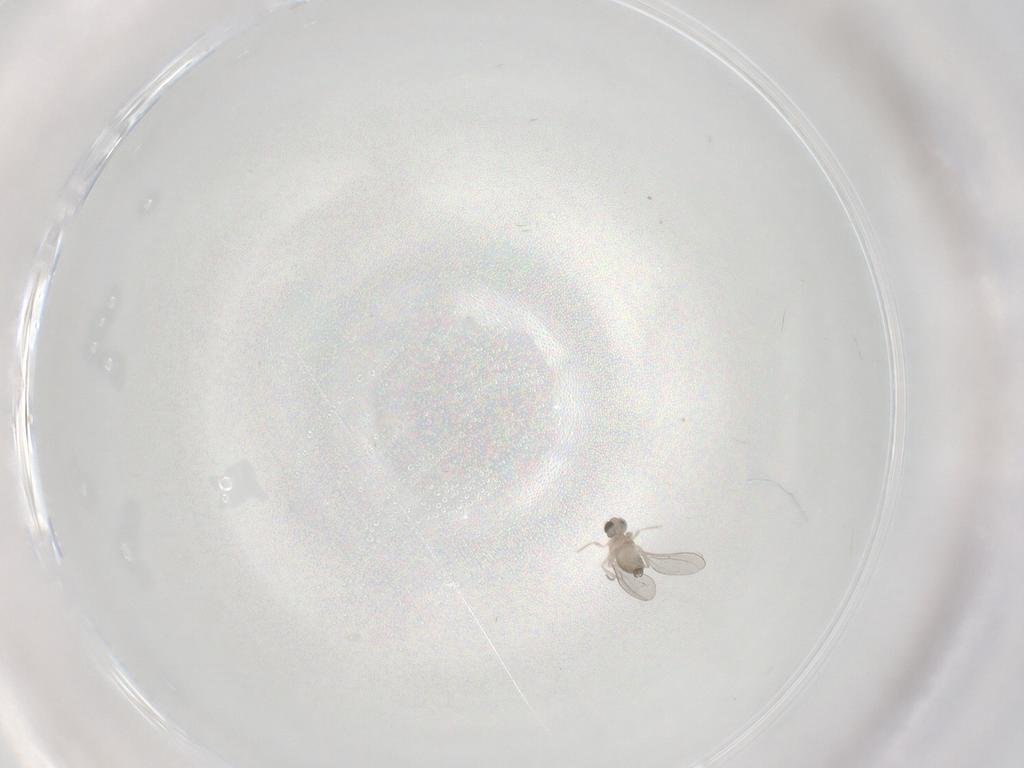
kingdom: Animalia
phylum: Arthropoda
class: Insecta
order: Diptera
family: Cecidomyiidae
